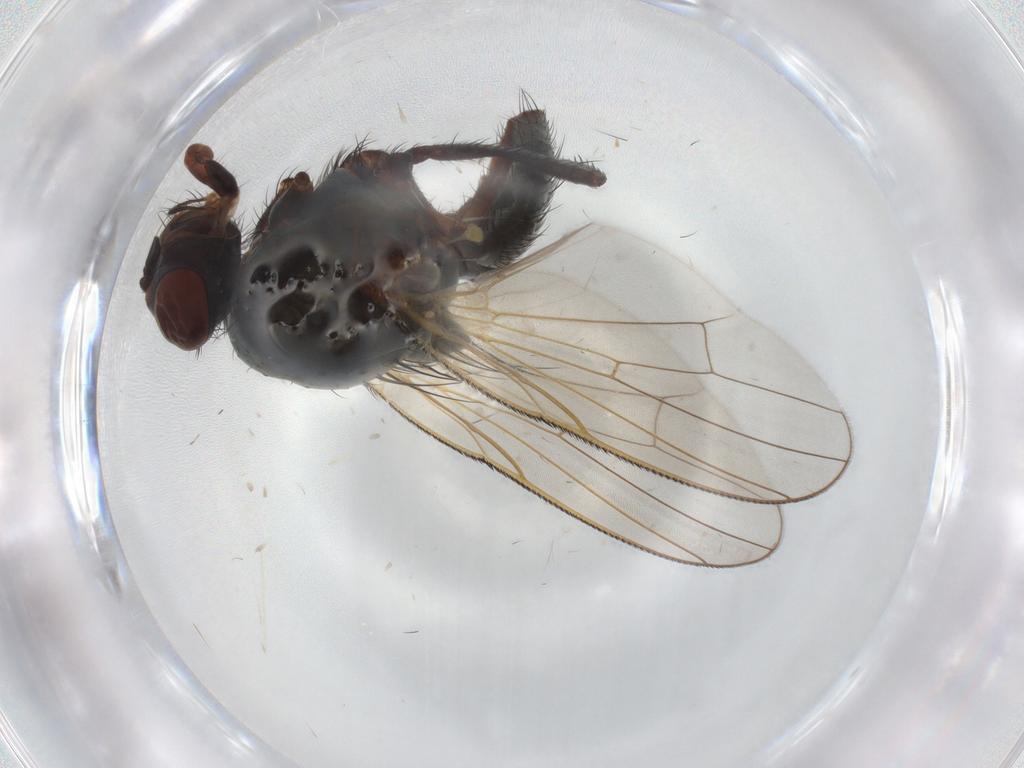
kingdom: Animalia
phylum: Arthropoda
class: Insecta
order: Diptera
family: Anthomyiidae
